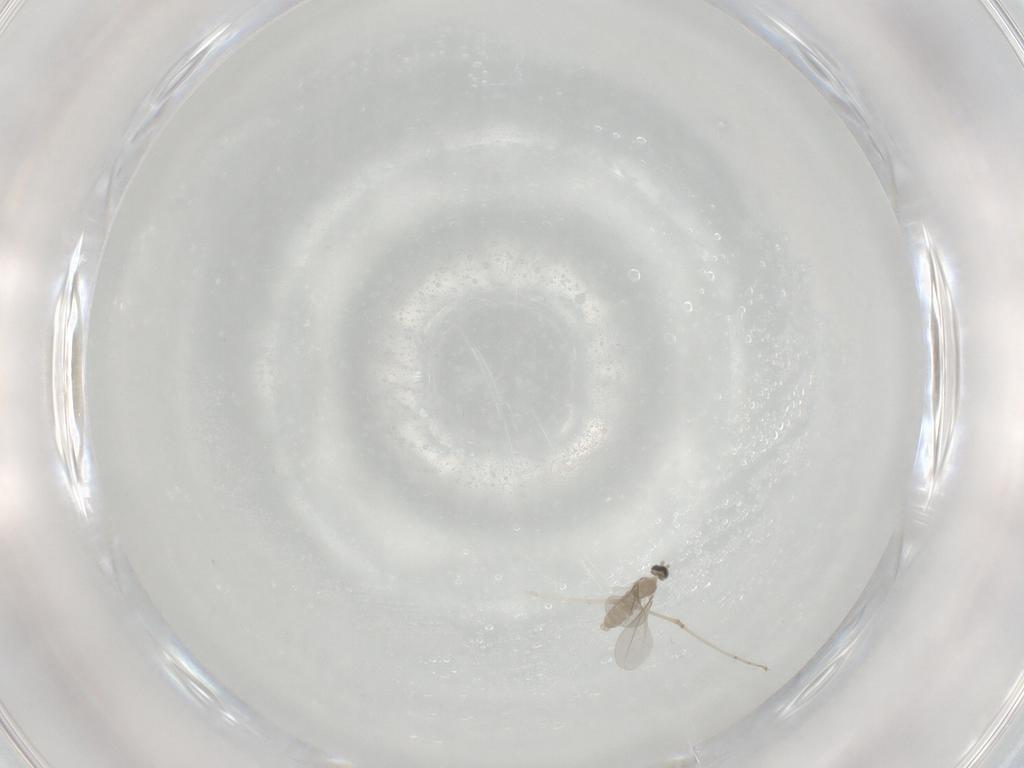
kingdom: Animalia
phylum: Arthropoda
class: Insecta
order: Diptera
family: Cecidomyiidae
